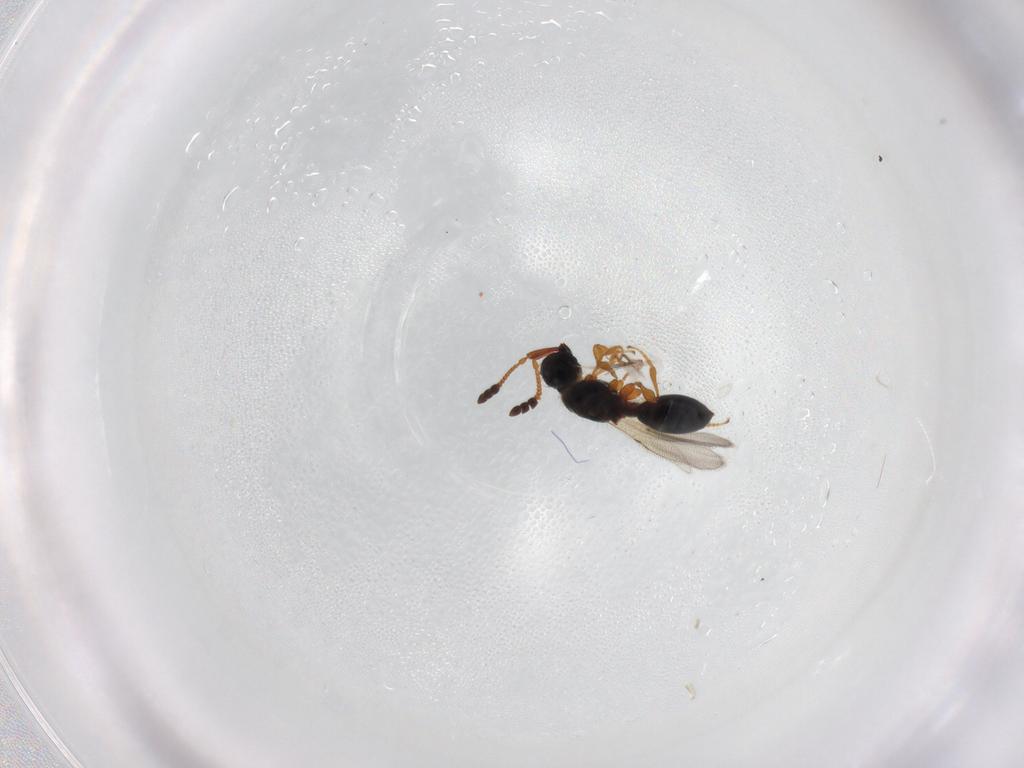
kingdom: Animalia
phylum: Arthropoda
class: Insecta
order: Hymenoptera
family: Diapriidae
